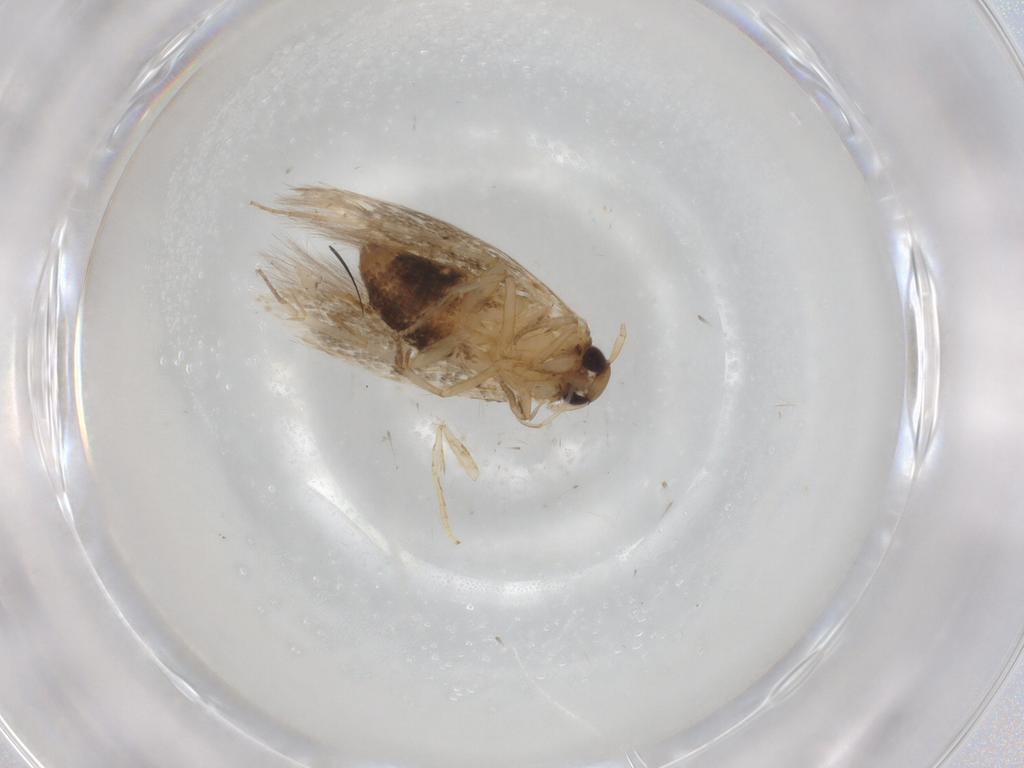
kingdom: Animalia
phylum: Arthropoda
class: Insecta
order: Lepidoptera
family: Cosmopterigidae
